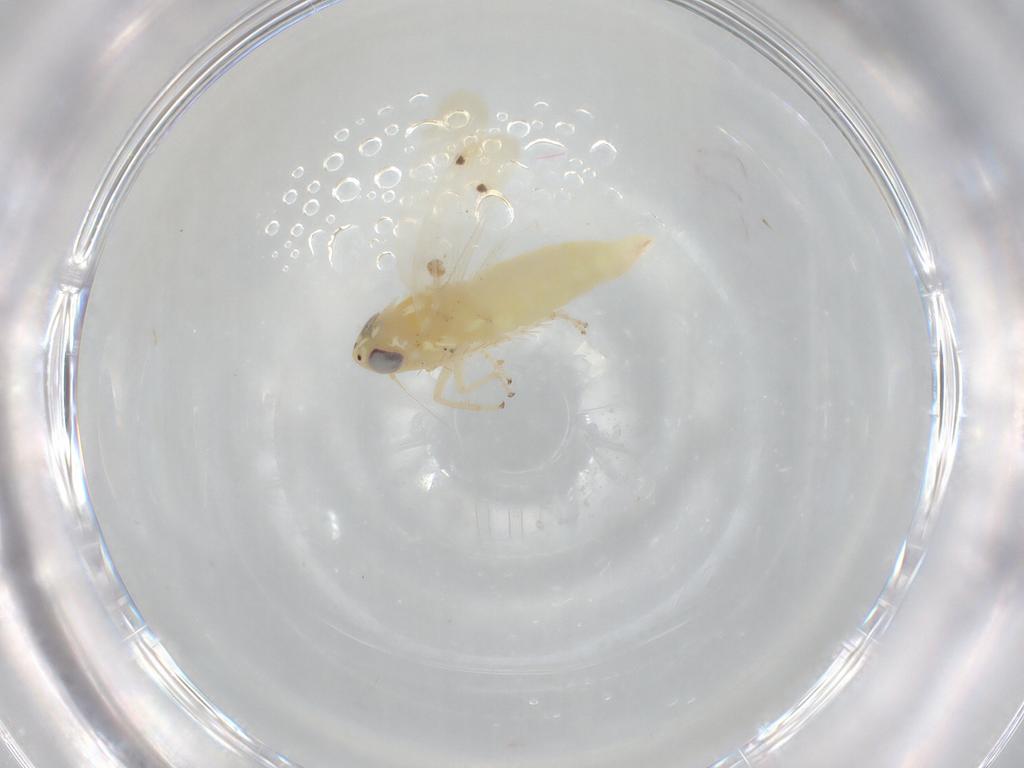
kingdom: Animalia
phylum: Arthropoda
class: Insecta
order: Hemiptera
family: Cicadellidae
